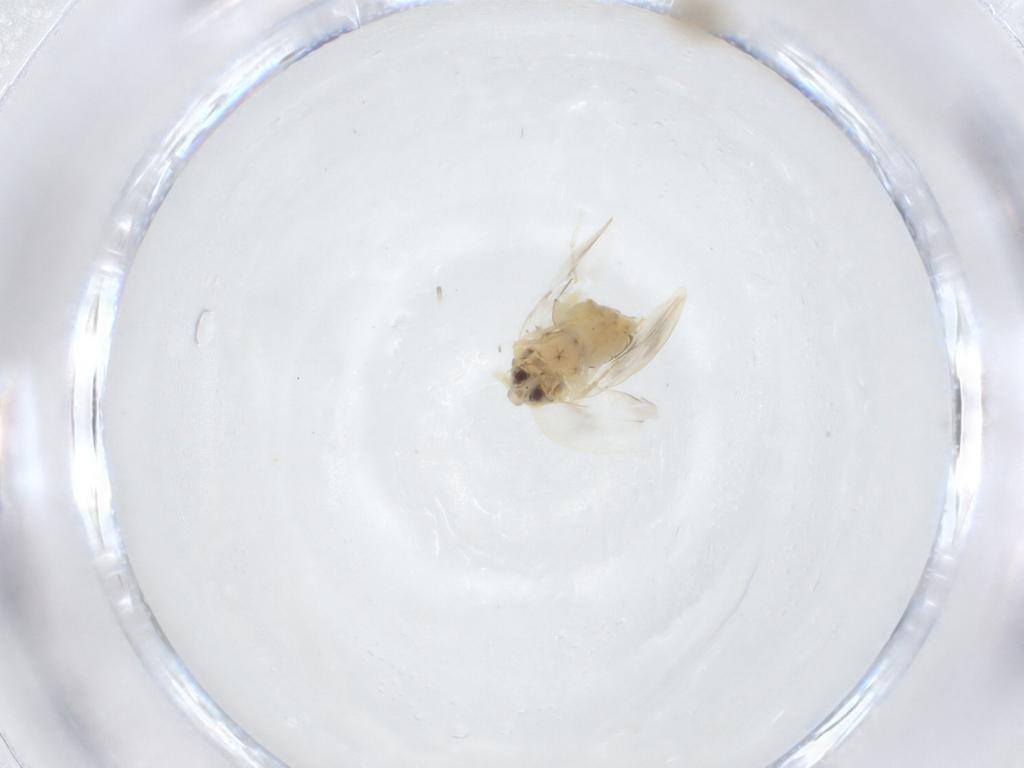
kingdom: Animalia
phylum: Arthropoda
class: Insecta
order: Hemiptera
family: Aleyrodidae
